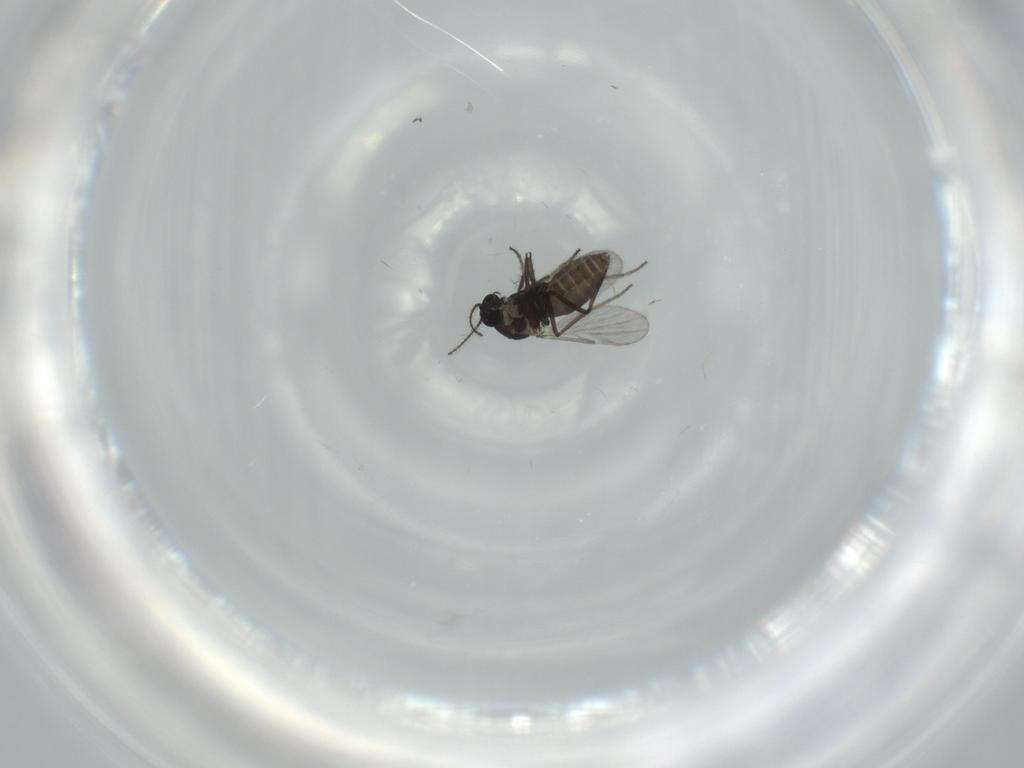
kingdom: Animalia
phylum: Arthropoda
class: Insecta
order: Diptera
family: Ceratopogonidae
